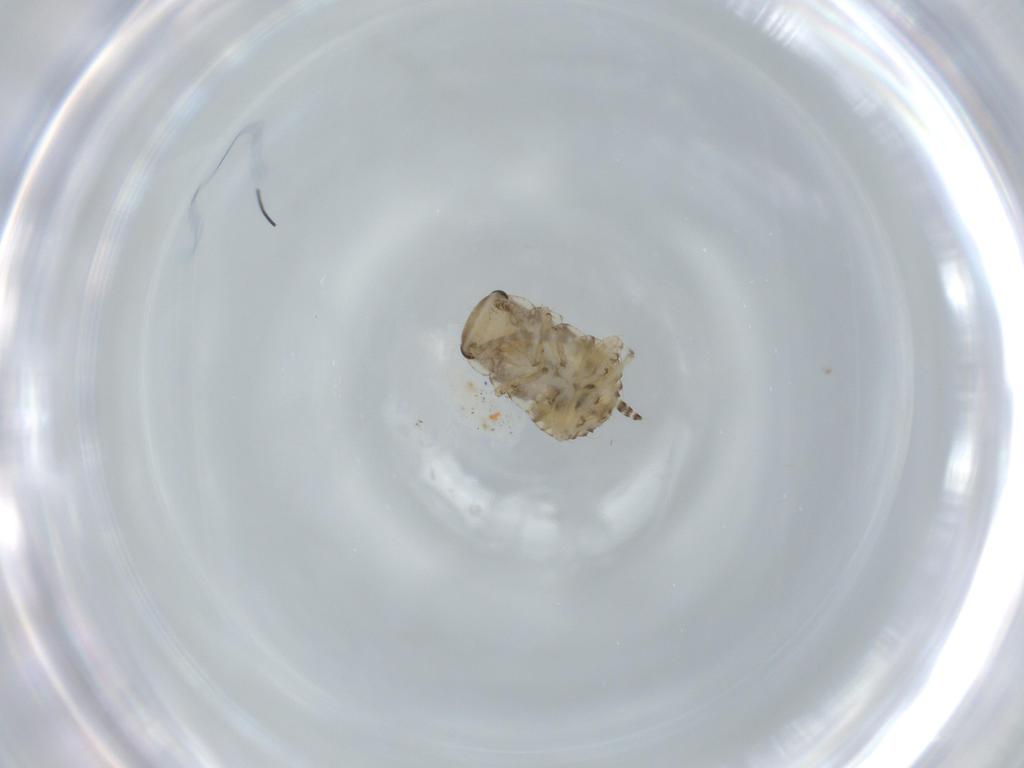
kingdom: Animalia
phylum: Arthropoda
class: Insecta
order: Blattodea
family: Ectobiidae
